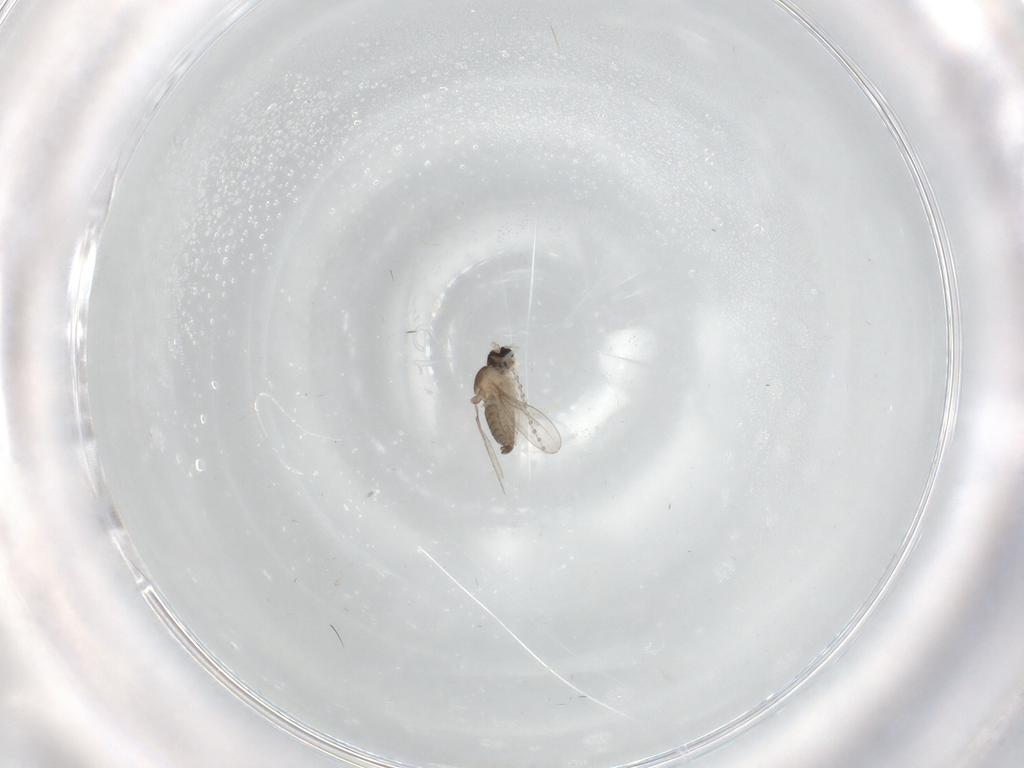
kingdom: Animalia
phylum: Arthropoda
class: Insecta
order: Diptera
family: Cecidomyiidae
